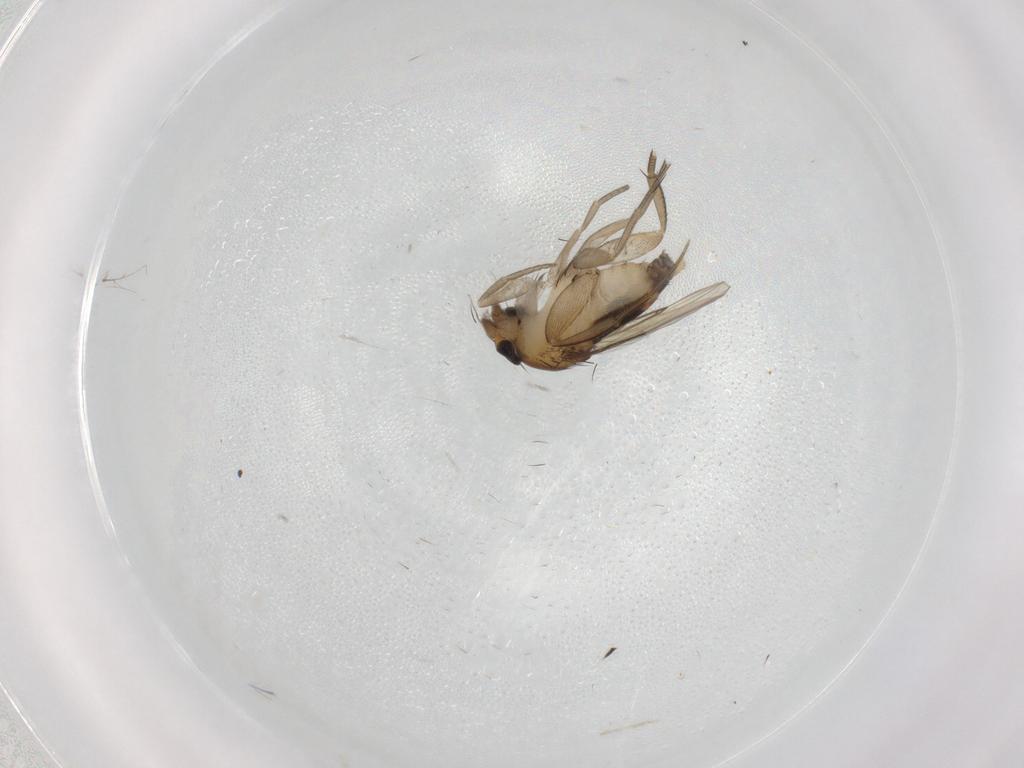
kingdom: Animalia
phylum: Arthropoda
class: Insecta
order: Diptera
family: Phoridae
